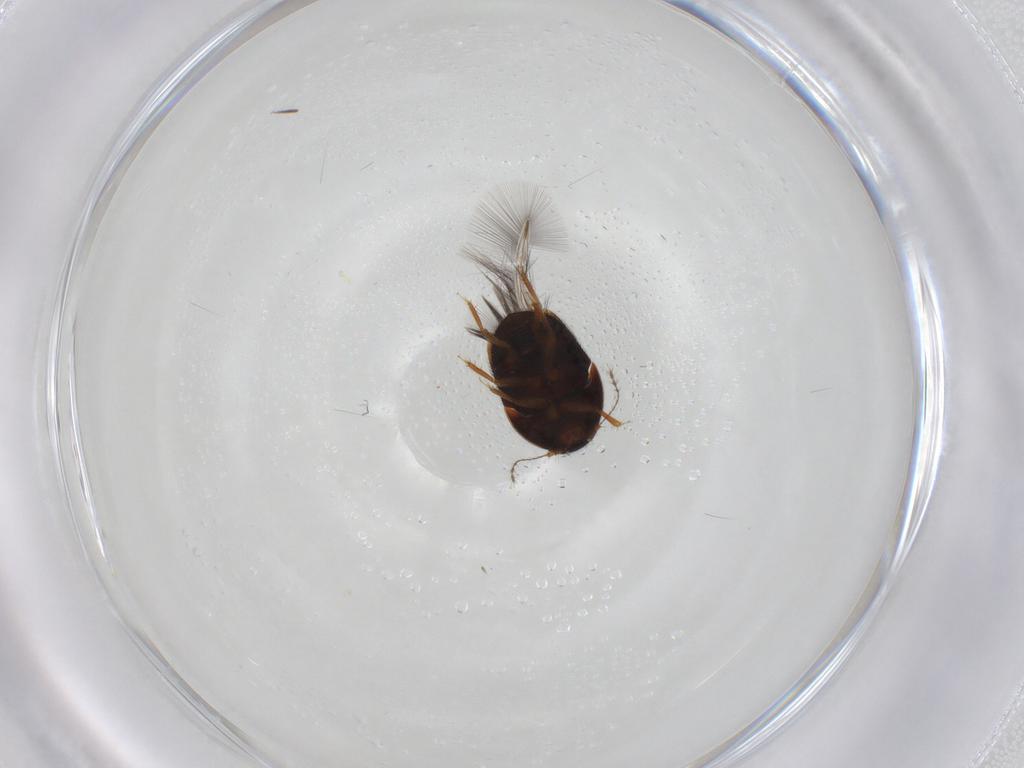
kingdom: Animalia
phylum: Arthropoda
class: Insecta
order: Coleoptera
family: Ptiliidae
